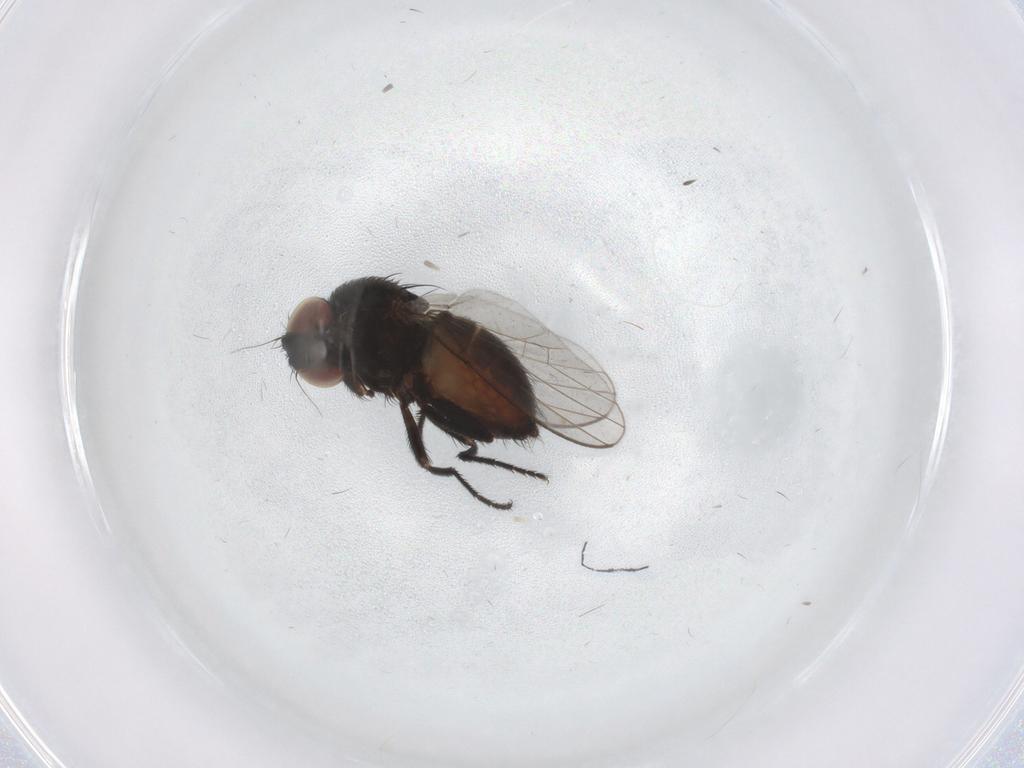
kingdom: Animalia
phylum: Arthropoda
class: Insecta
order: Diptera
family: Milichiidae
